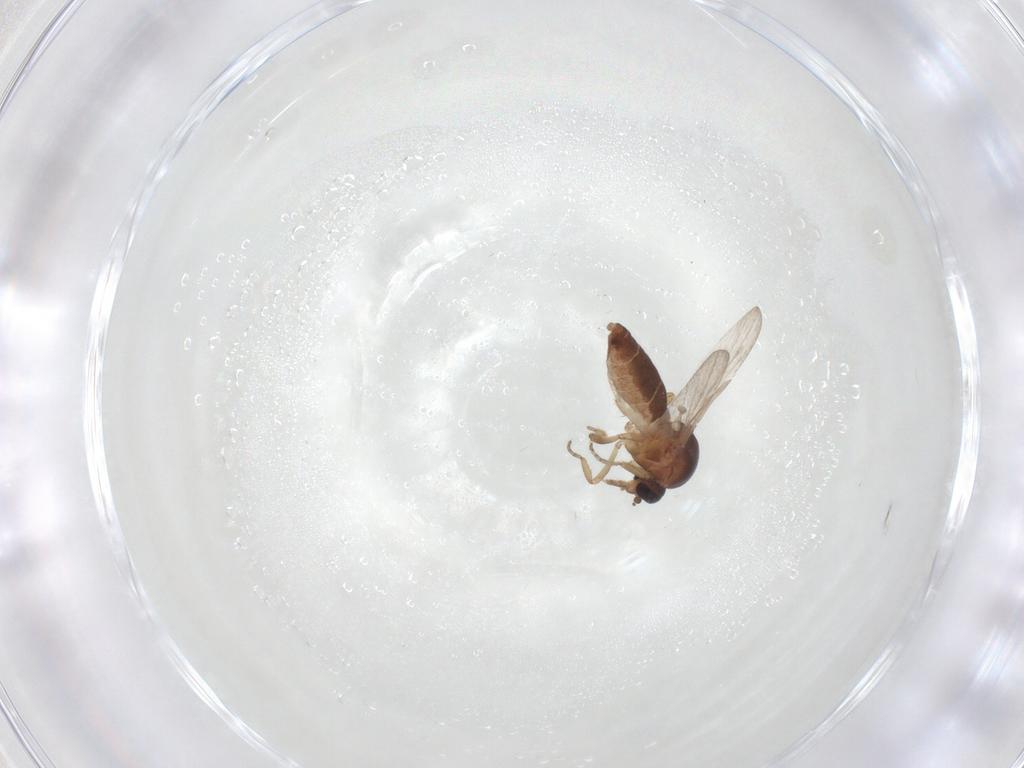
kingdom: Animalia
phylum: Arthropoda
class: Insecta
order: Diptera
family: Ceratopogonidae
